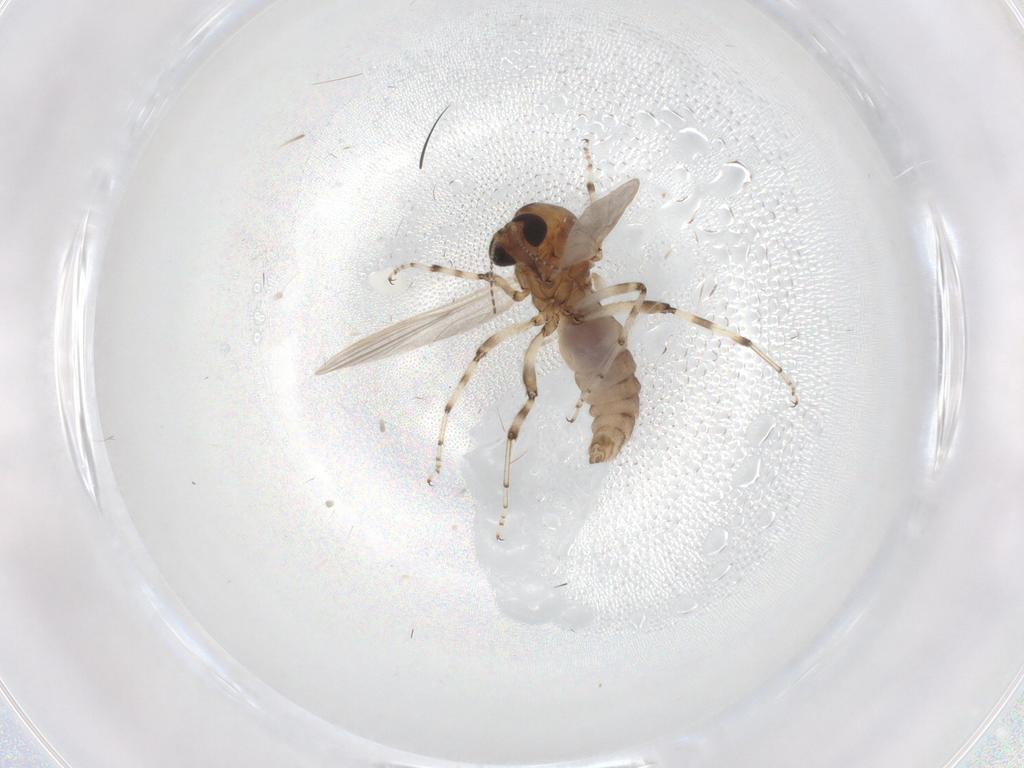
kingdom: Animalia
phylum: Arthropoda
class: Insecta
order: Diptera
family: Ceratopogonidae
